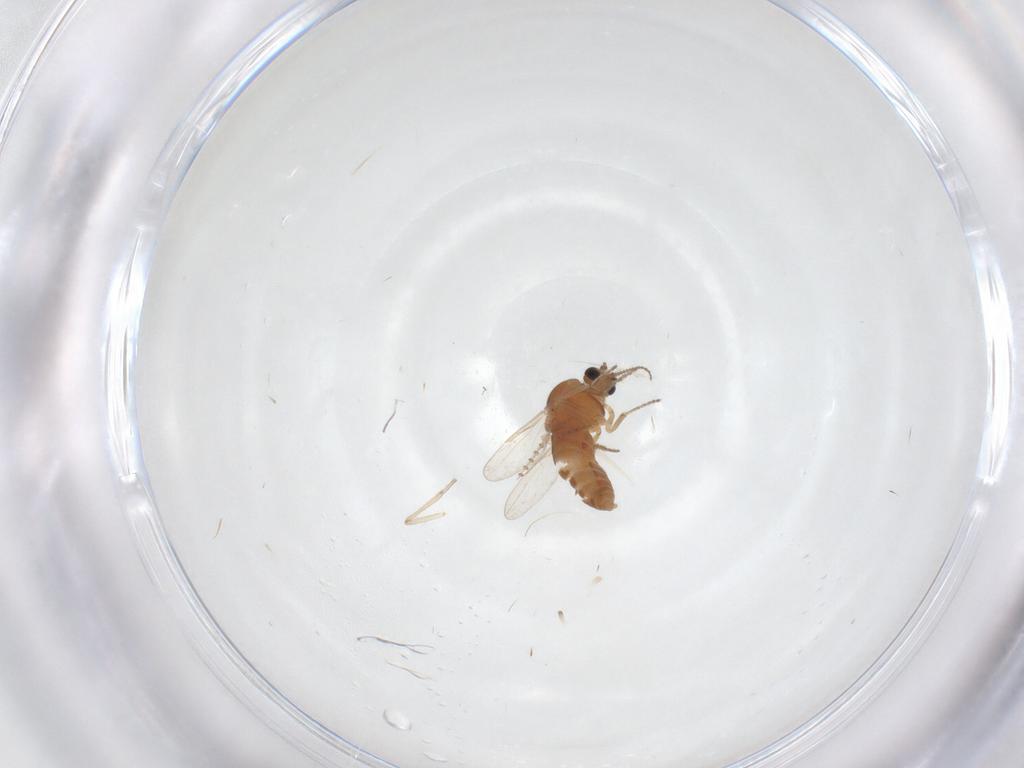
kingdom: Animalia
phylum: Arthropoda
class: Insecta
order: Diptera
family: Ceratopogonidae
